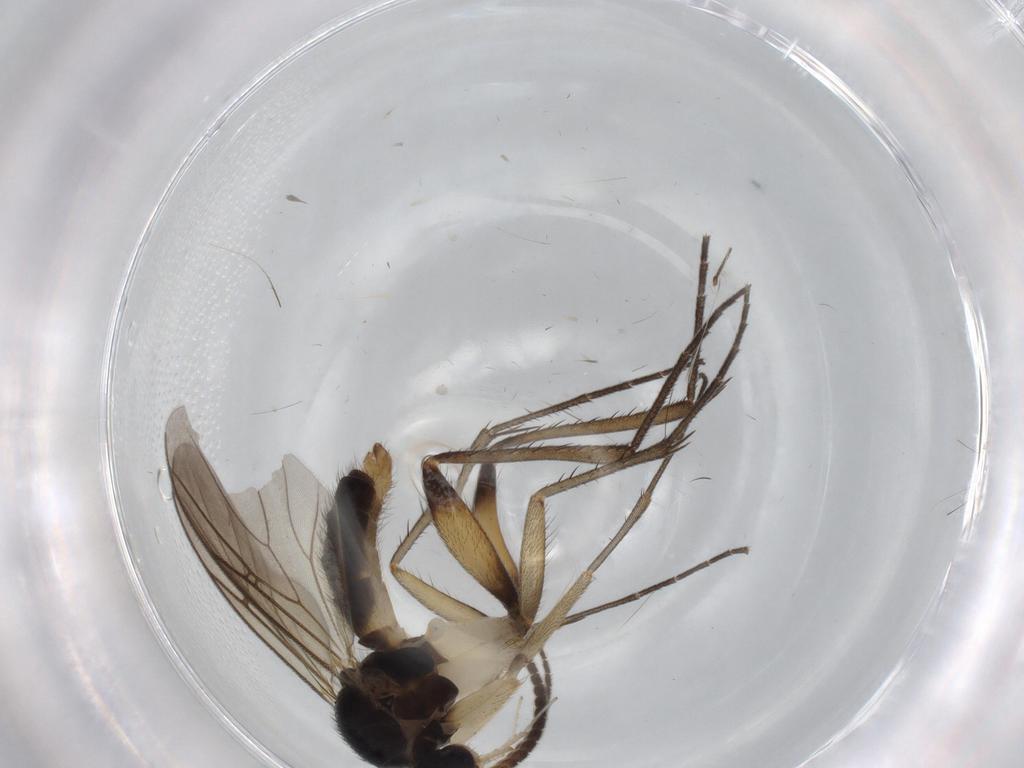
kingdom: Animalia
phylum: Arthropoda
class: Insecta
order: Diptera
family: Mycetophilidae
